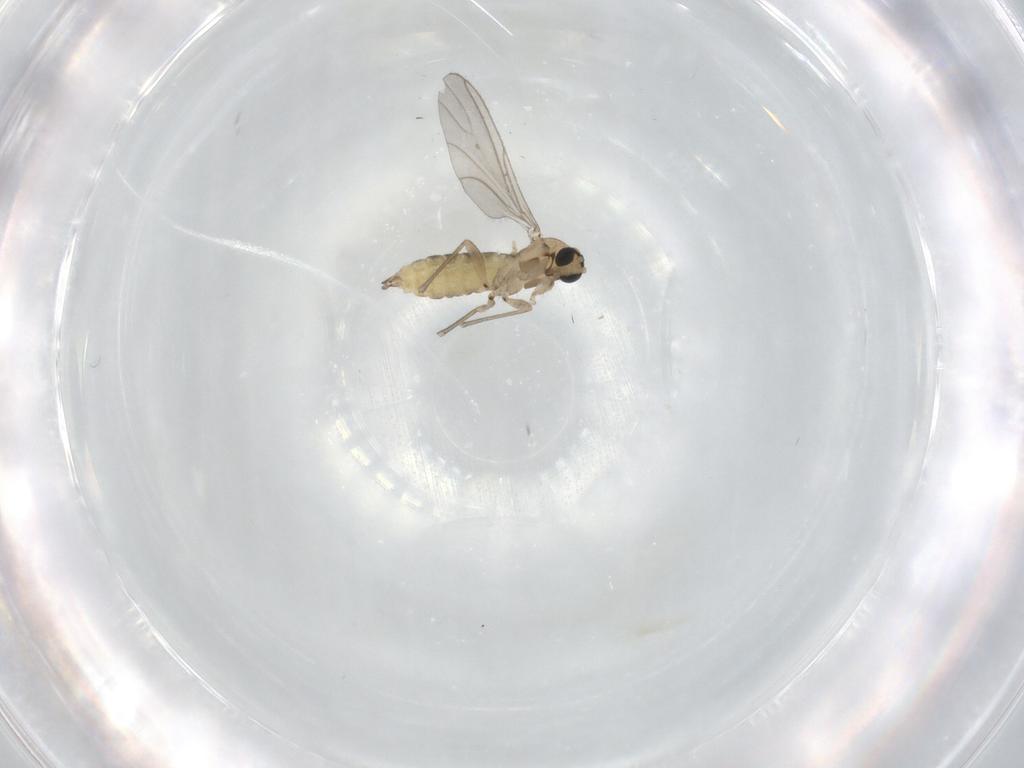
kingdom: Animalia
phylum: Arthropoda
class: Insecta
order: Diptera
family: Sciaridae
